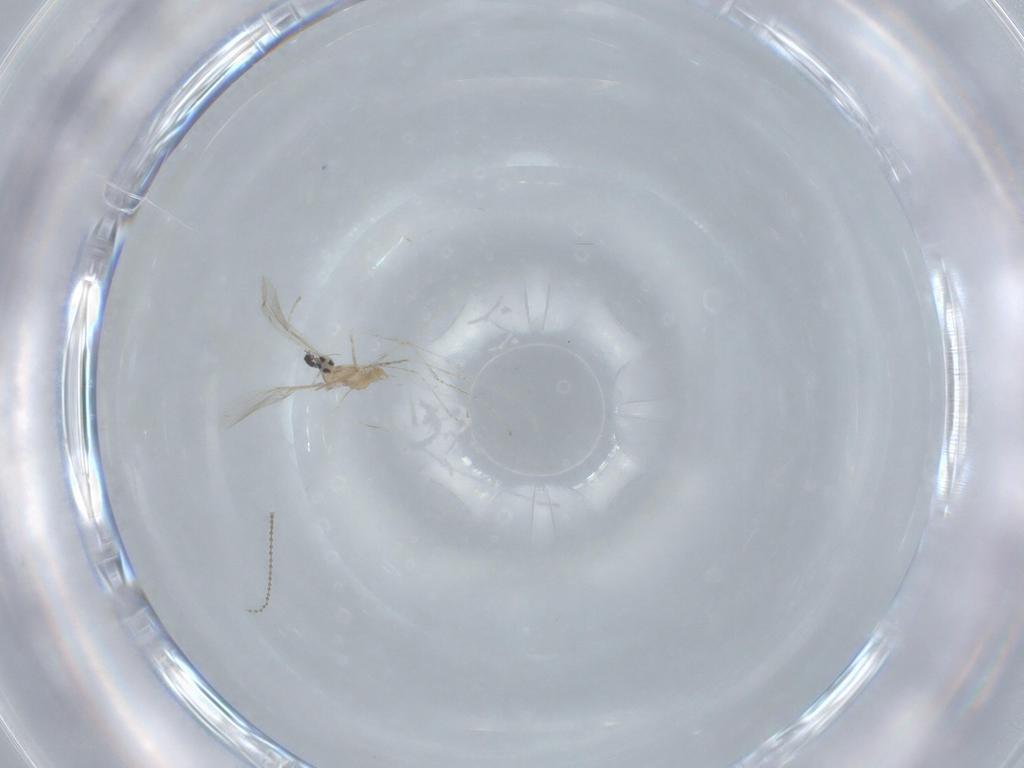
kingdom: Animalia
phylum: Arthropoda
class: Insecta
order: Diptera
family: Cecidomyiidae
